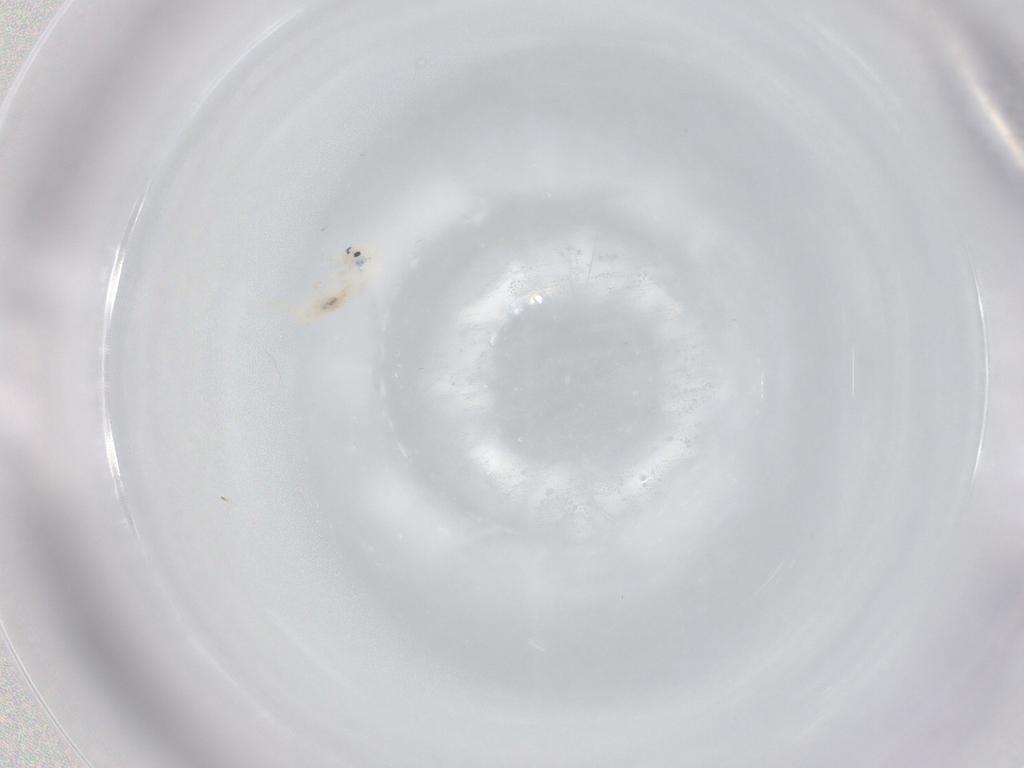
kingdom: Animalia
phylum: Arthropoda
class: Collembola
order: Entomobryomorpha
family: Entomobryidae
